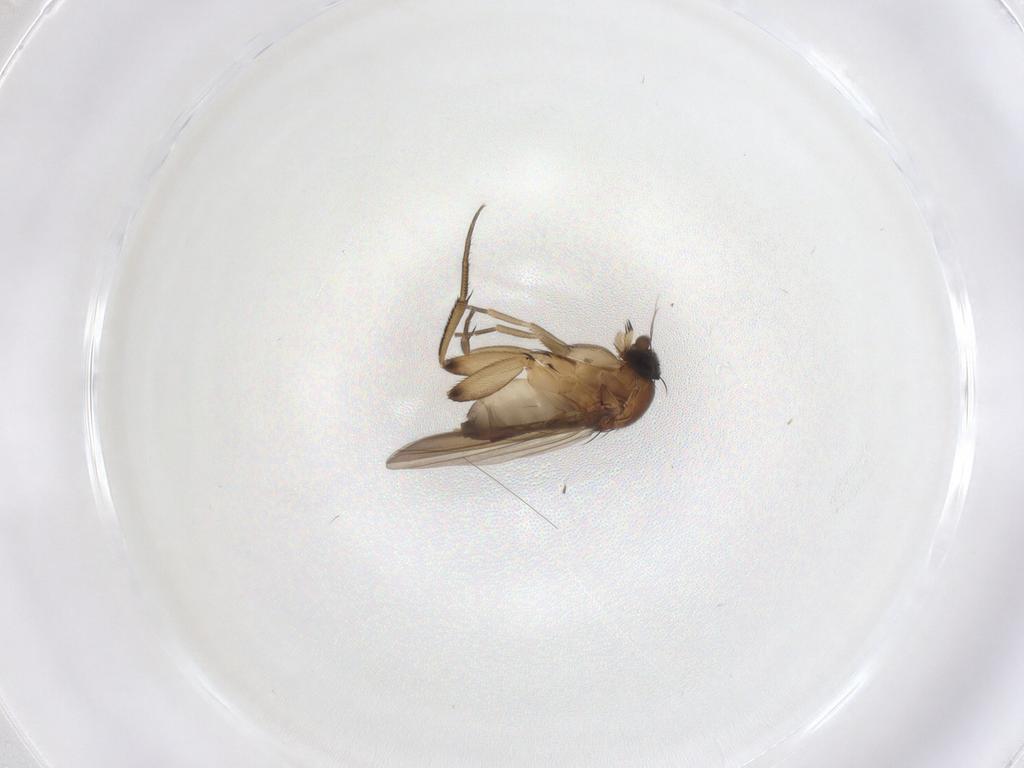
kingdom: Animalia
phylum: Arthropoda
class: Insecta
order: Diptera
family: Phoridae
